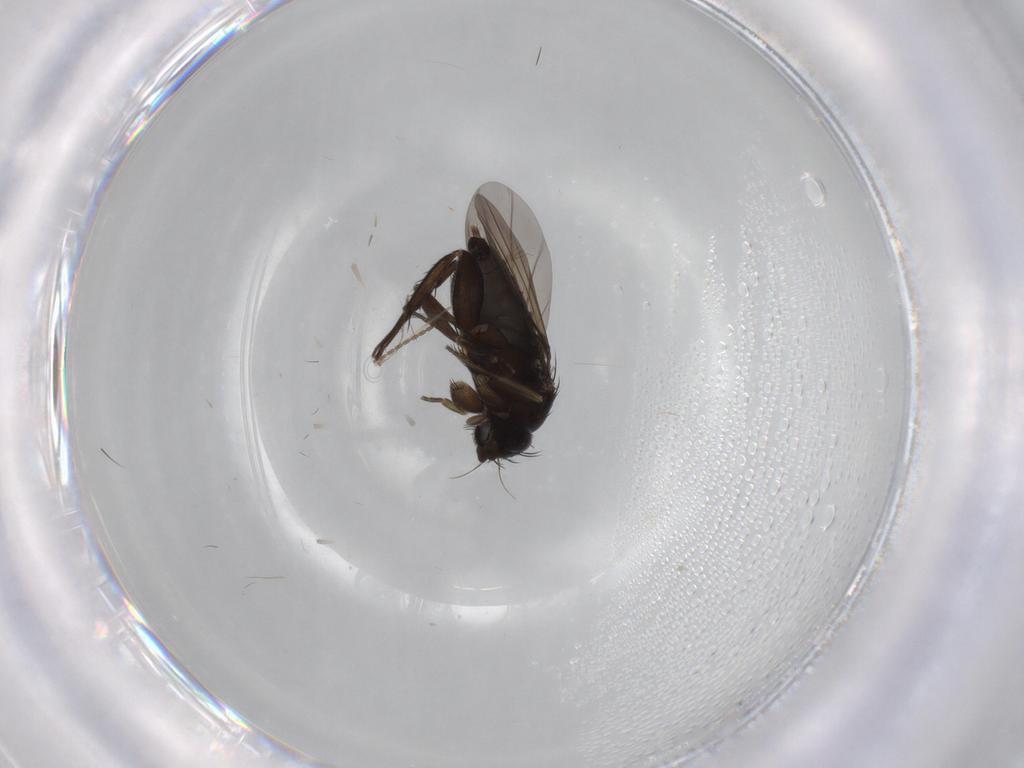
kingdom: Animalia
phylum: Arthropoda
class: Insecta
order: Diptera
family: Phoridae
